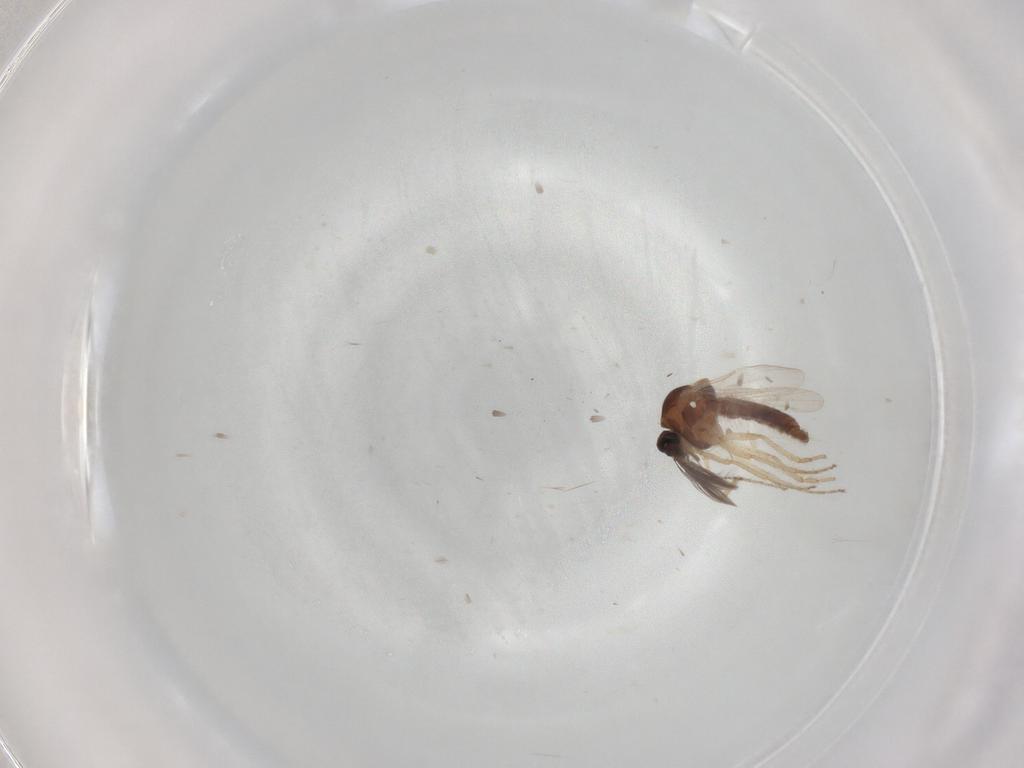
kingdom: Animalia
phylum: Arthropoda
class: Insecta
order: Diptera
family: Ceratopogonidae
